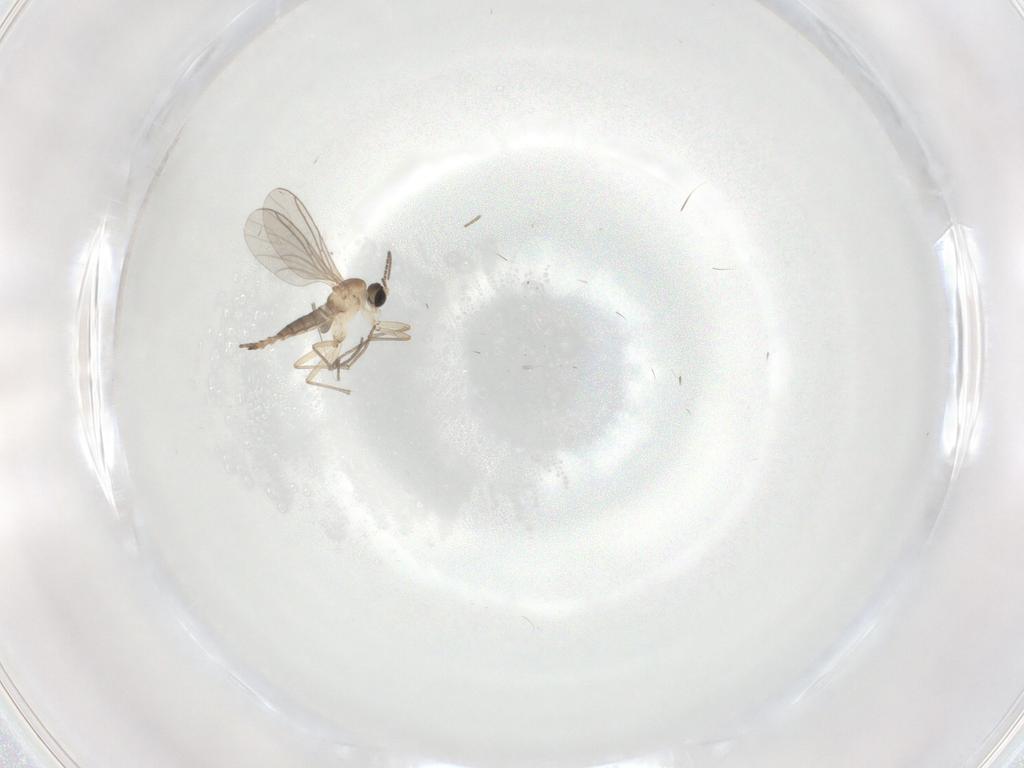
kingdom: Animalia
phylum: Arthropoda
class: Insecta
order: Diptera
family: Sciaridae
